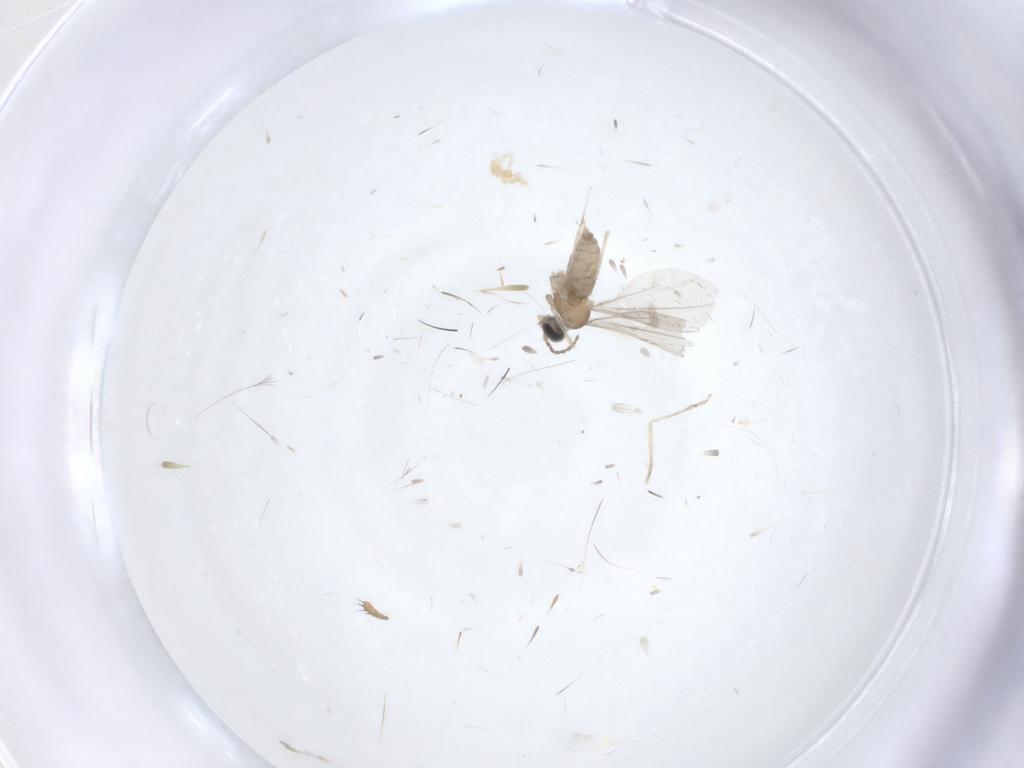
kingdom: Animalia
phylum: Arthropoda
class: Insecta
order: Diptera
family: Cecidomyiidae
